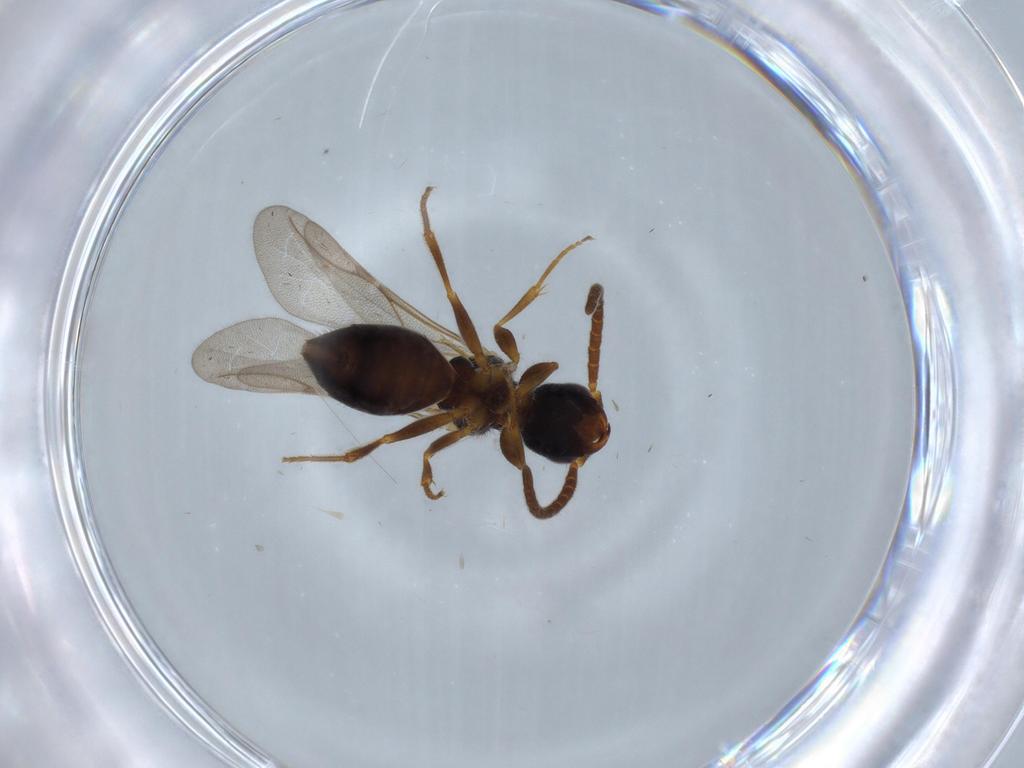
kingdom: Animalia
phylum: Arthropoda
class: Insecta
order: Hymenoptera
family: Bethylidae
